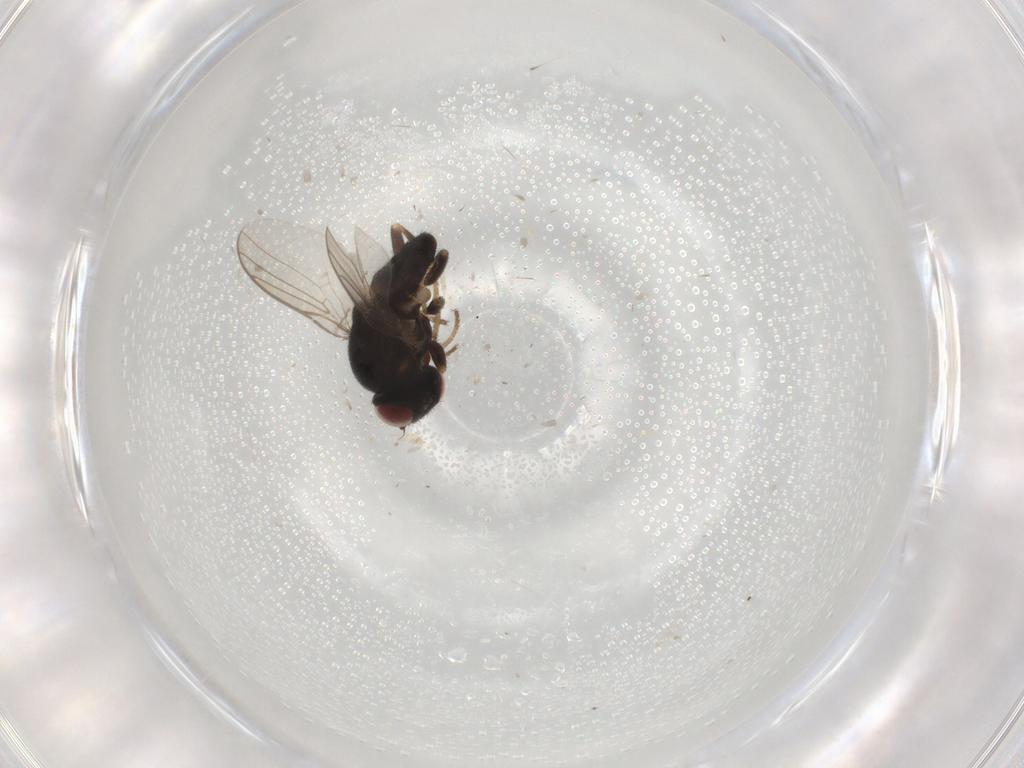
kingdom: Animalia
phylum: Arthropoda
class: Insecta
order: Diptera
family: Chloropidae
